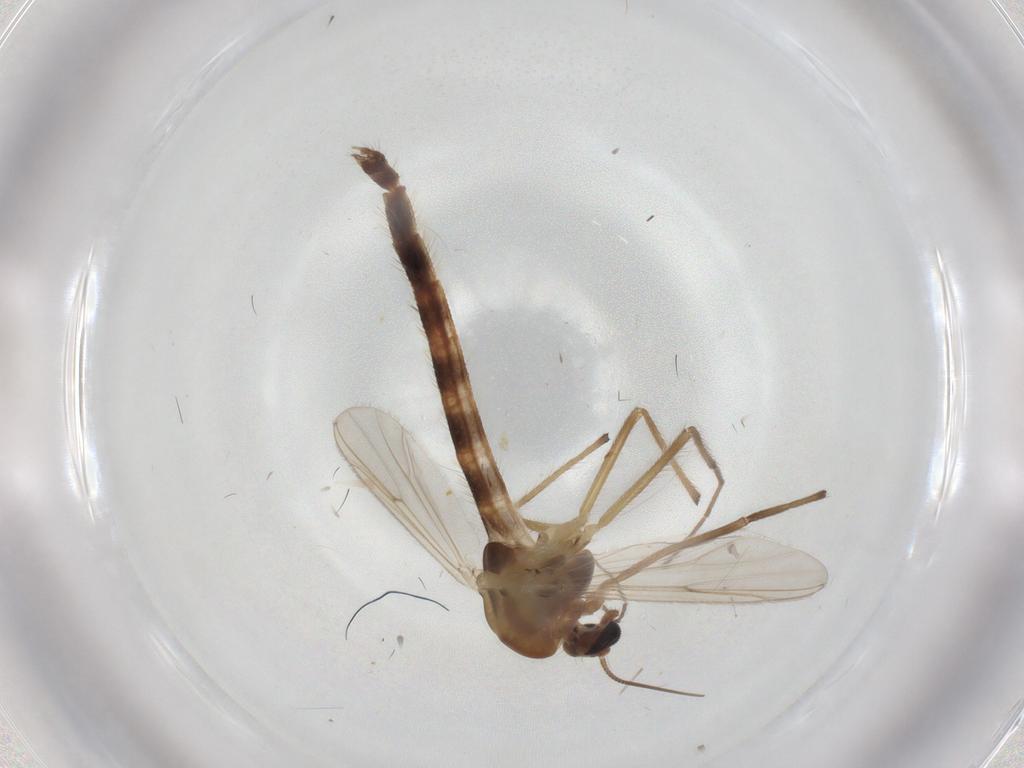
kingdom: Animalia
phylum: Arthropoda
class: Insecta
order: Diptera
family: Chironomidae
